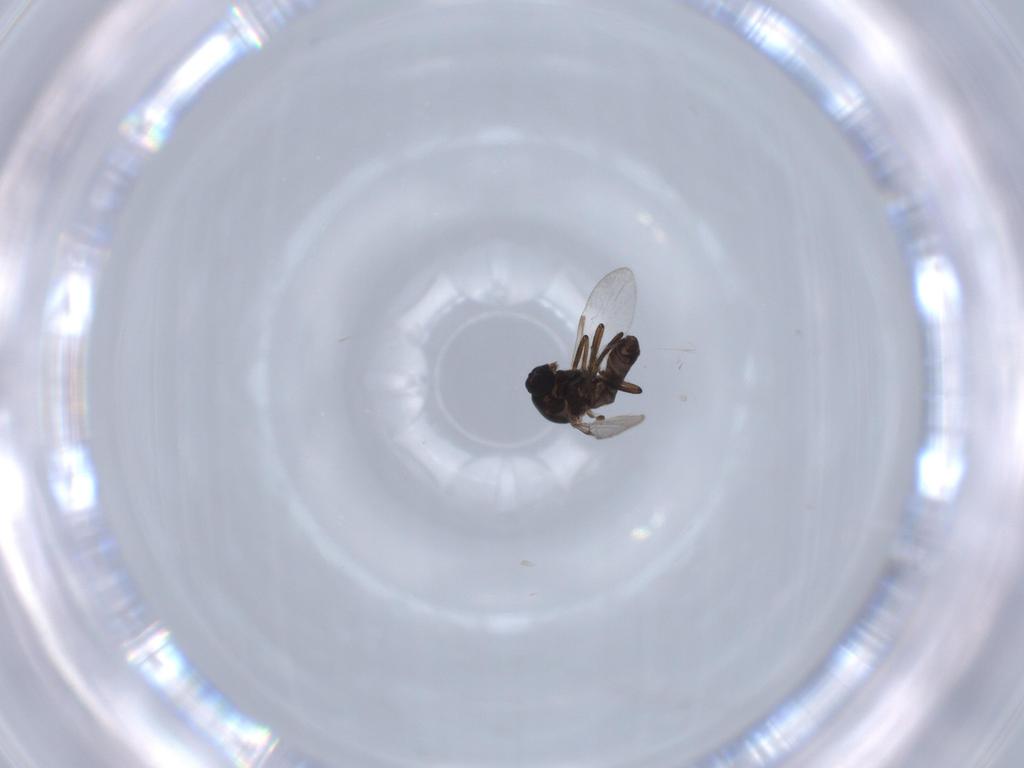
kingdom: Animalia
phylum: Arthropoda
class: Insecta
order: Diptera
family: Ceratopogonidae
